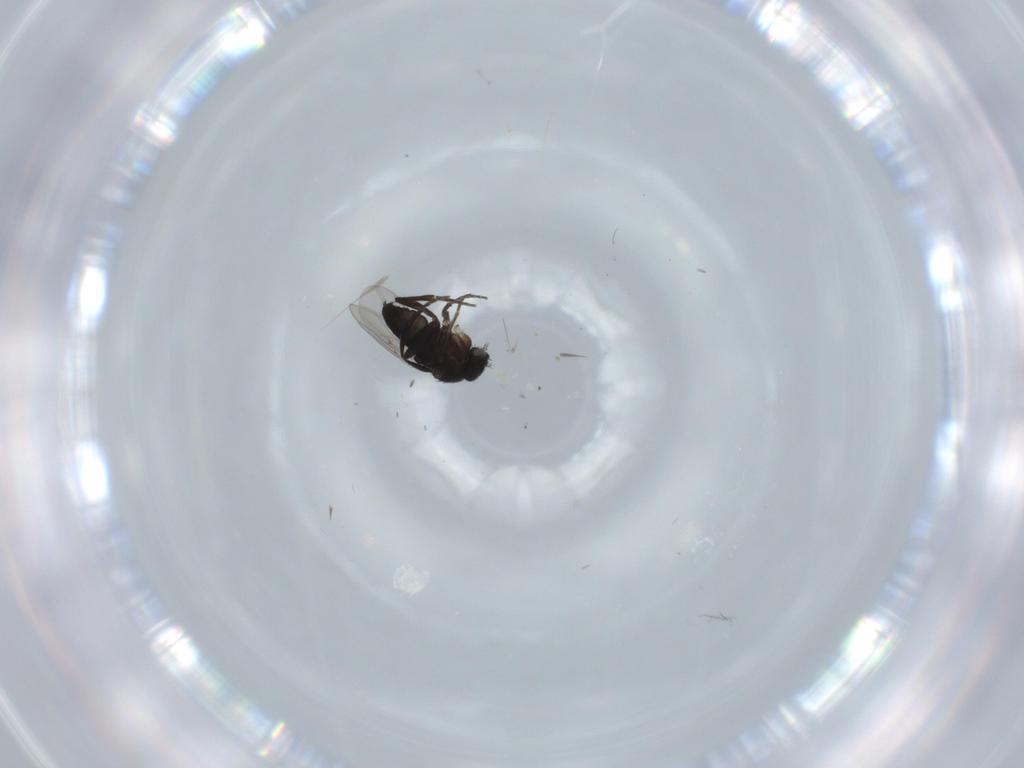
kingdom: Animalia
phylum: Arthropoda
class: Insecta
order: Diptera
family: Phoridae
